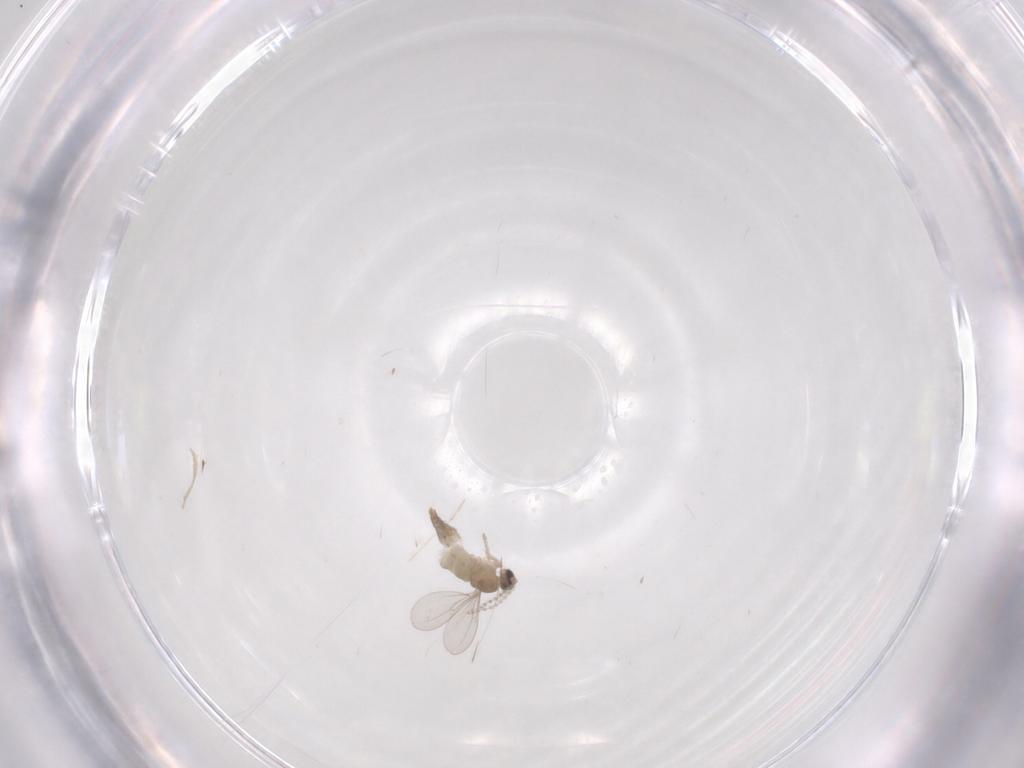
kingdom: Animalia
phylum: Arthropoda
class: Insecta
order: Diptera
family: Cecidomyiidae
